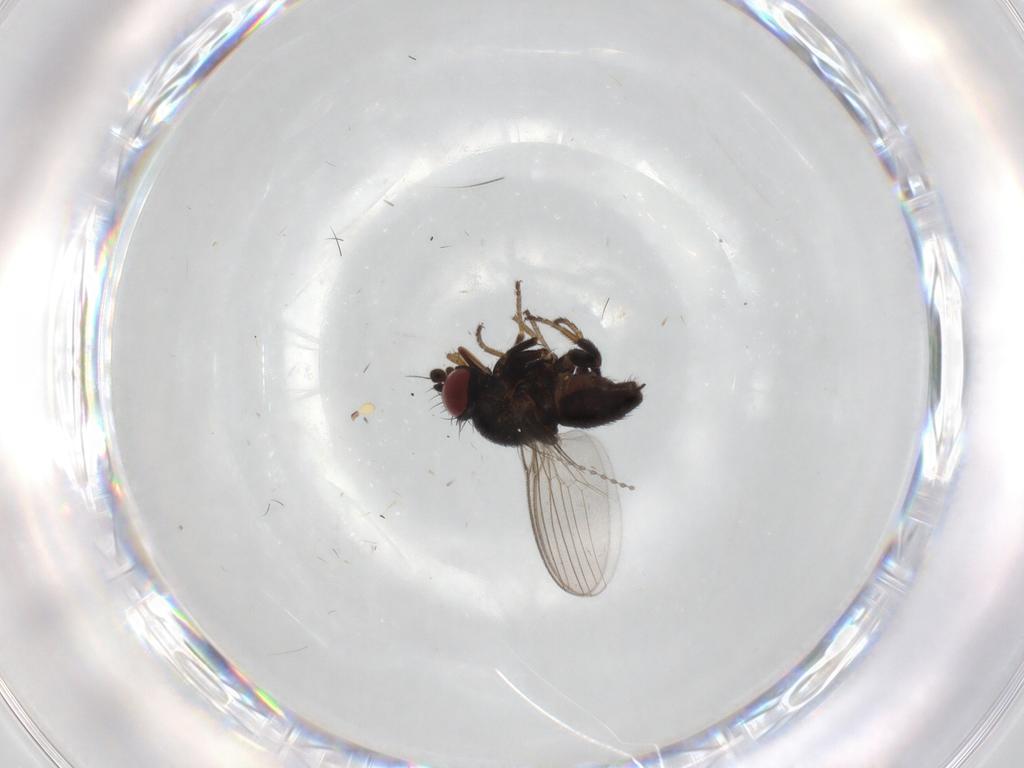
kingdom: Animalia
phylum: Arthropoda
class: Insecta
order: Diptera
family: Milichiidae
